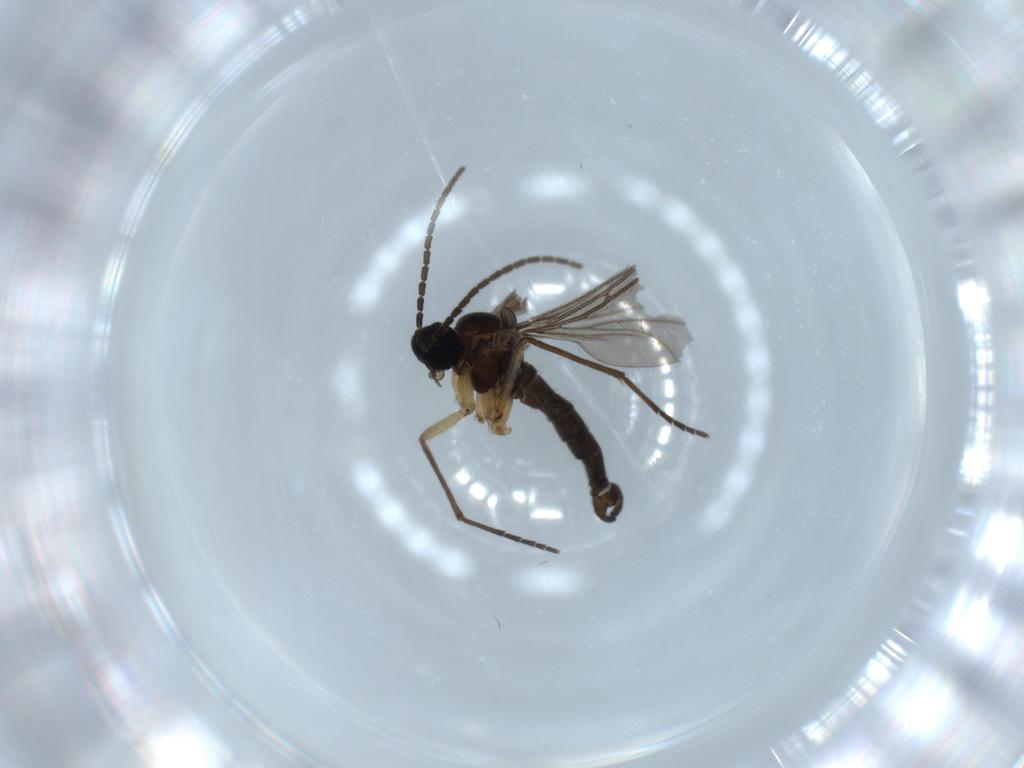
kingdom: Animalia
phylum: Arthropoda
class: Insecta
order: Diptera
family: Sciaridae
